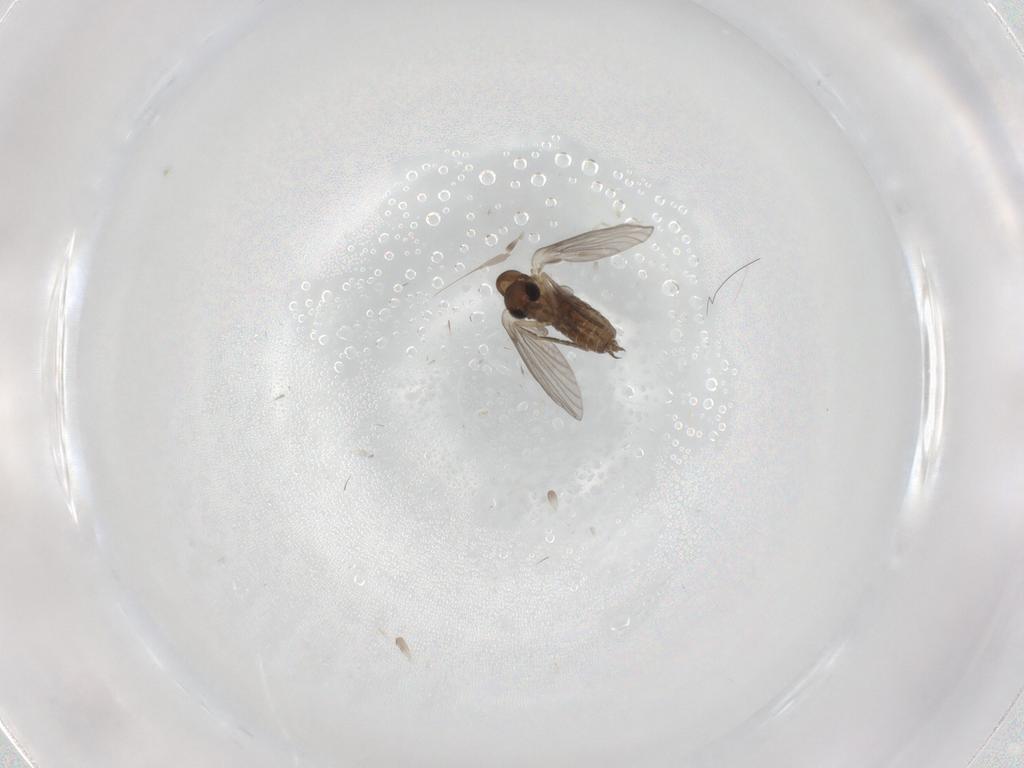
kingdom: Animalia
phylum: Arthropoda
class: Insecta
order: Diptera
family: Psychodidae
